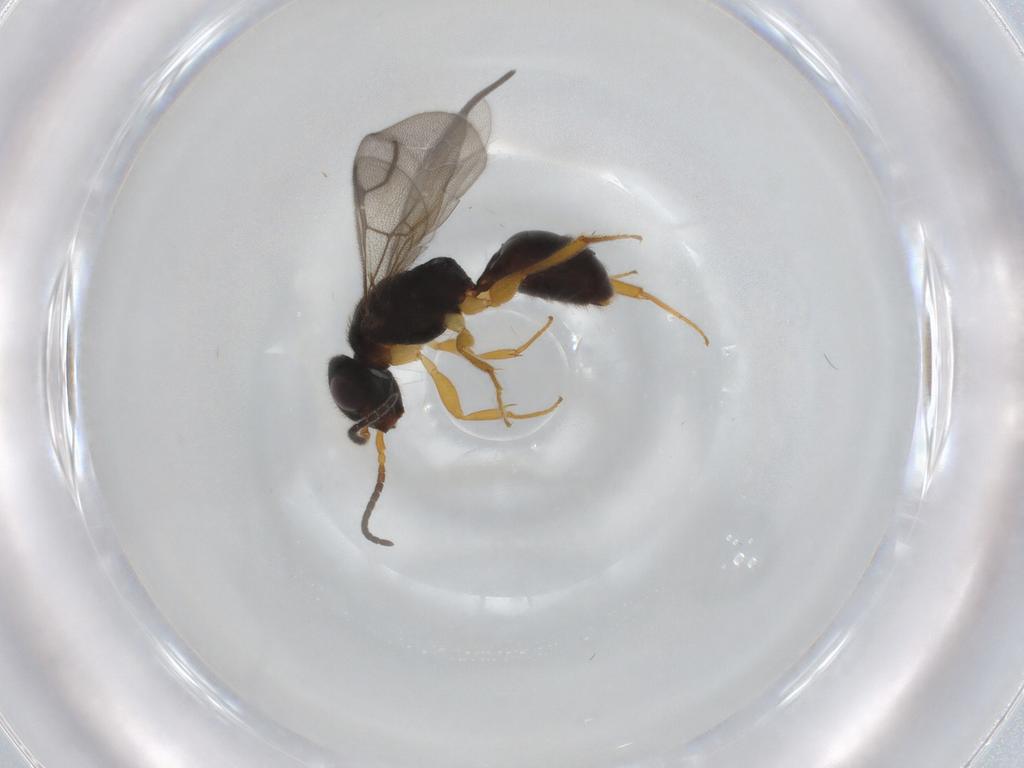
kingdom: Animalia
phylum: Arthropoda
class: Insecta
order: Hymenoptera
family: Bethylidae
